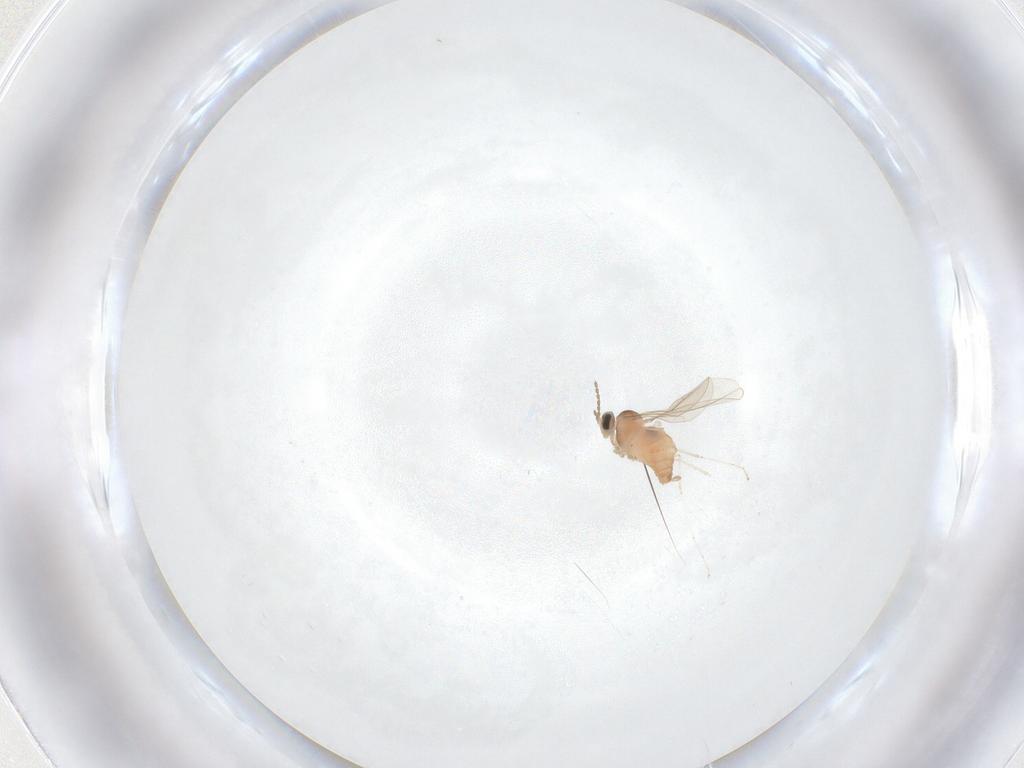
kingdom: Animalia
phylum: Arthropoda
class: Insecta
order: Diptera
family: Cecidomyiidae
